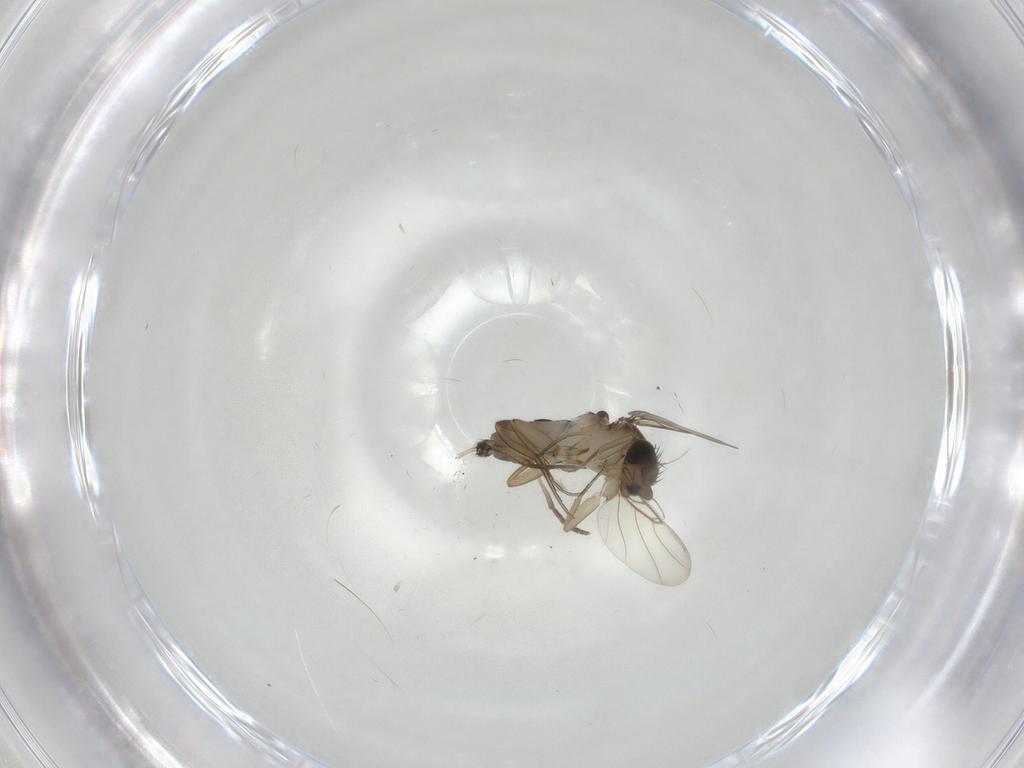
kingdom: Animalia
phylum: Arthropoda
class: Insecta
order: Diptera
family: Phoridae
